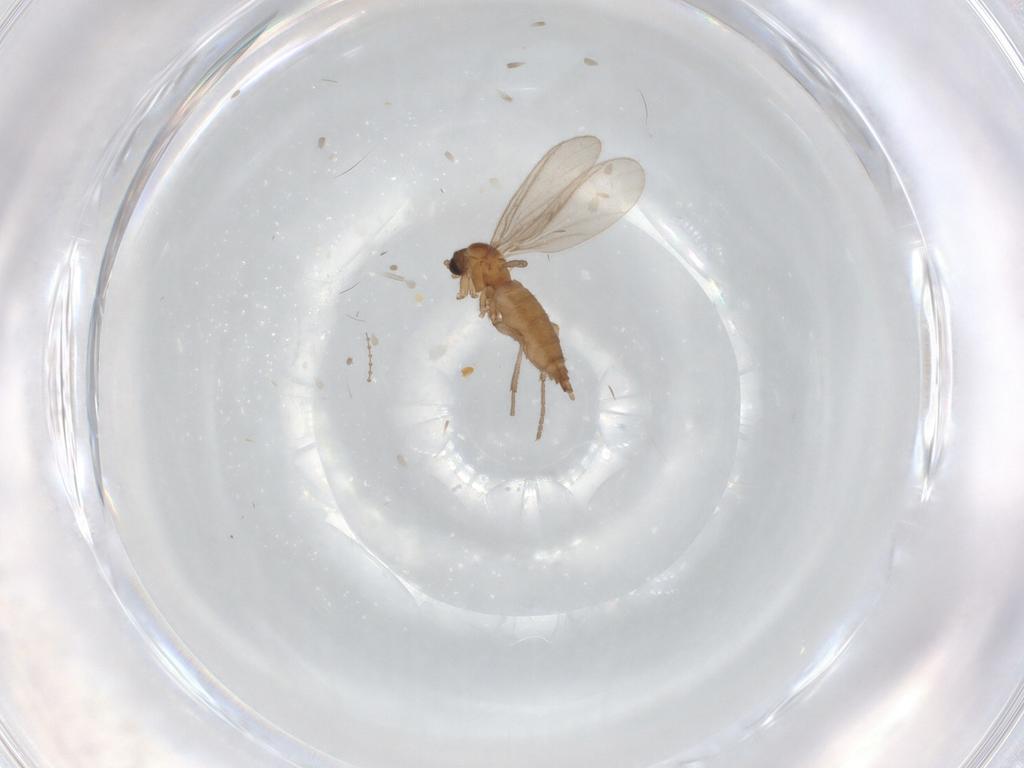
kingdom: Animalia
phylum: Arthropoda
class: Insecta
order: Diptera
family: Sciaridae
